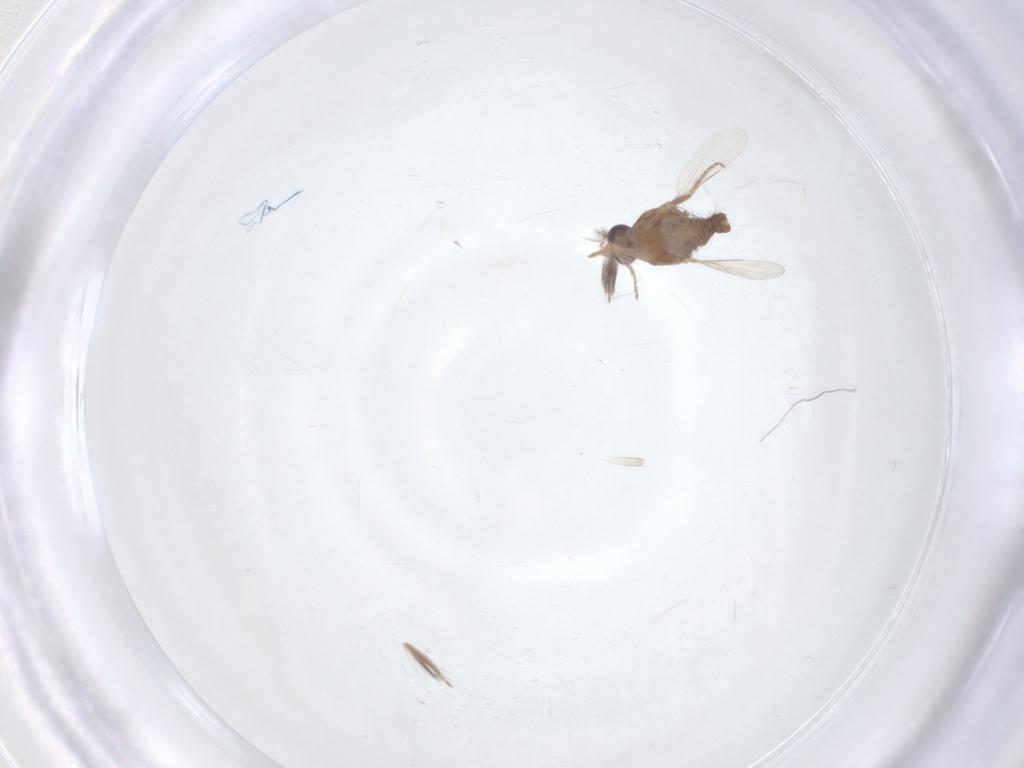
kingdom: Animalia
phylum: Arthropoda
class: Insecta
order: Diptera
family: Ceratopogonidae
